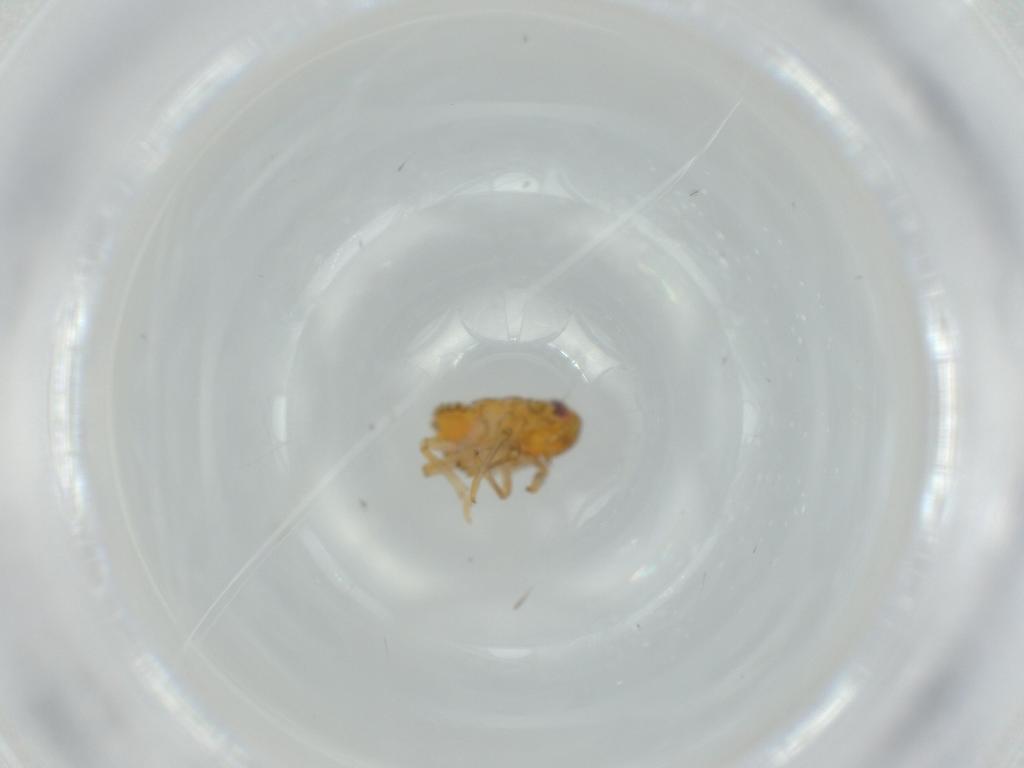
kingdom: Animalia
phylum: Arthropoda
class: Insecta
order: Hemiptera
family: Issidae
